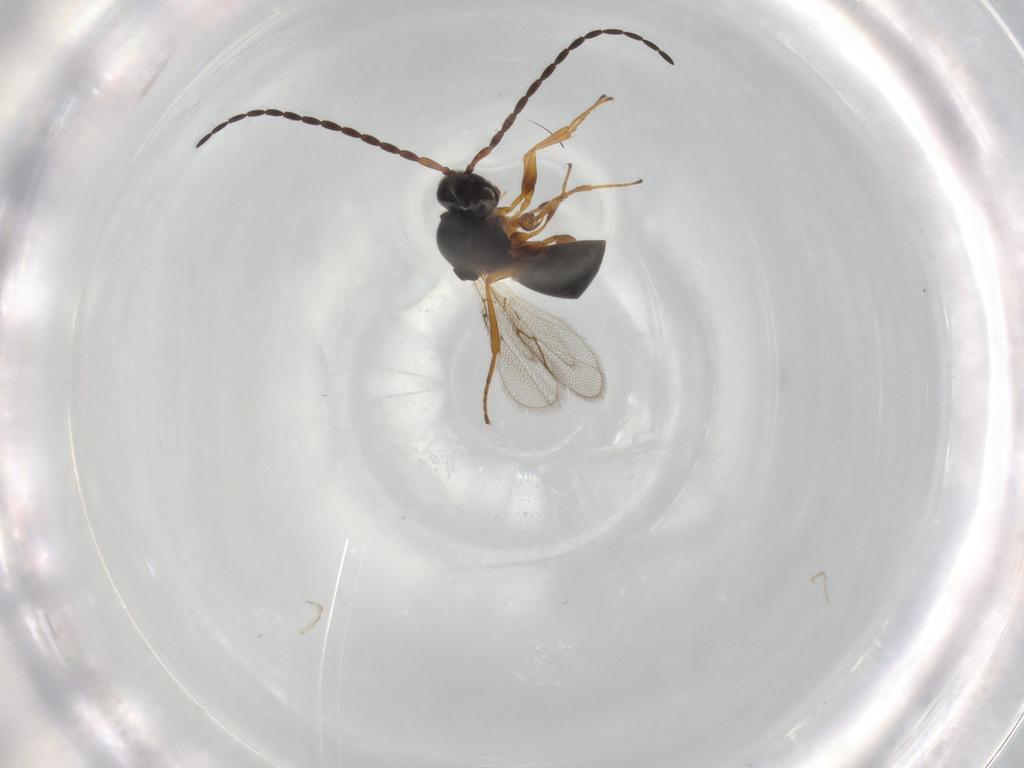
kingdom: Animalia
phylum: Arthropoda
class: Insecta
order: Hymenoptera
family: Figitidae
